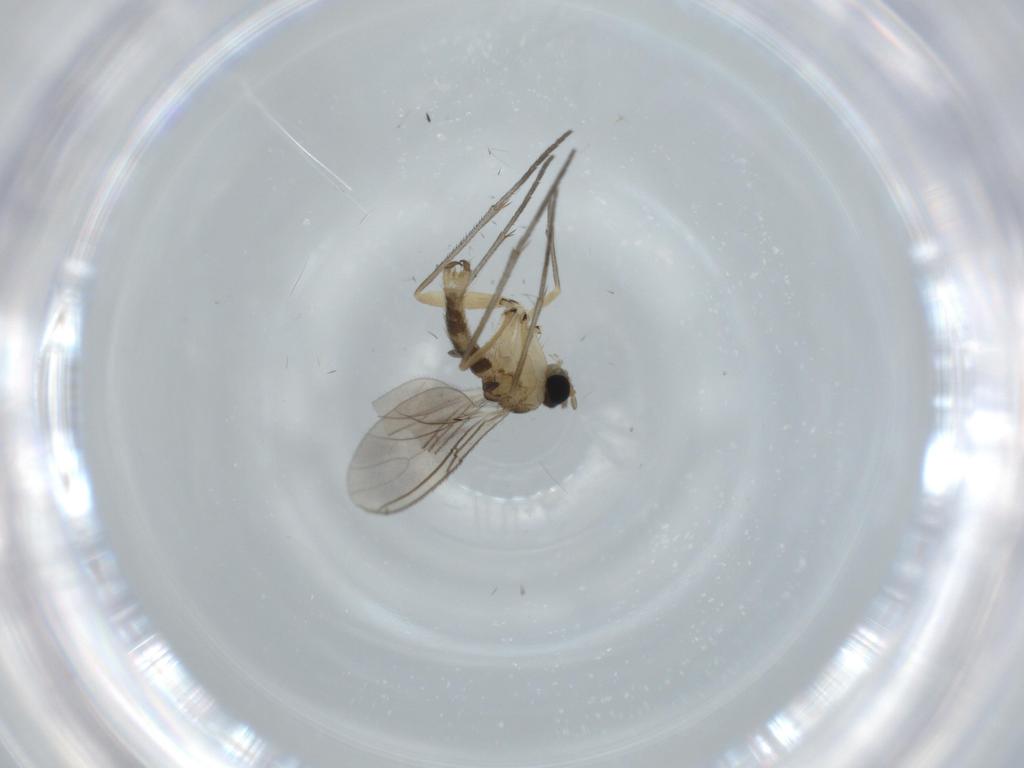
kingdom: Animalia
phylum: Arthropoda
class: Insecta
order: Diptera
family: Sciaridae
